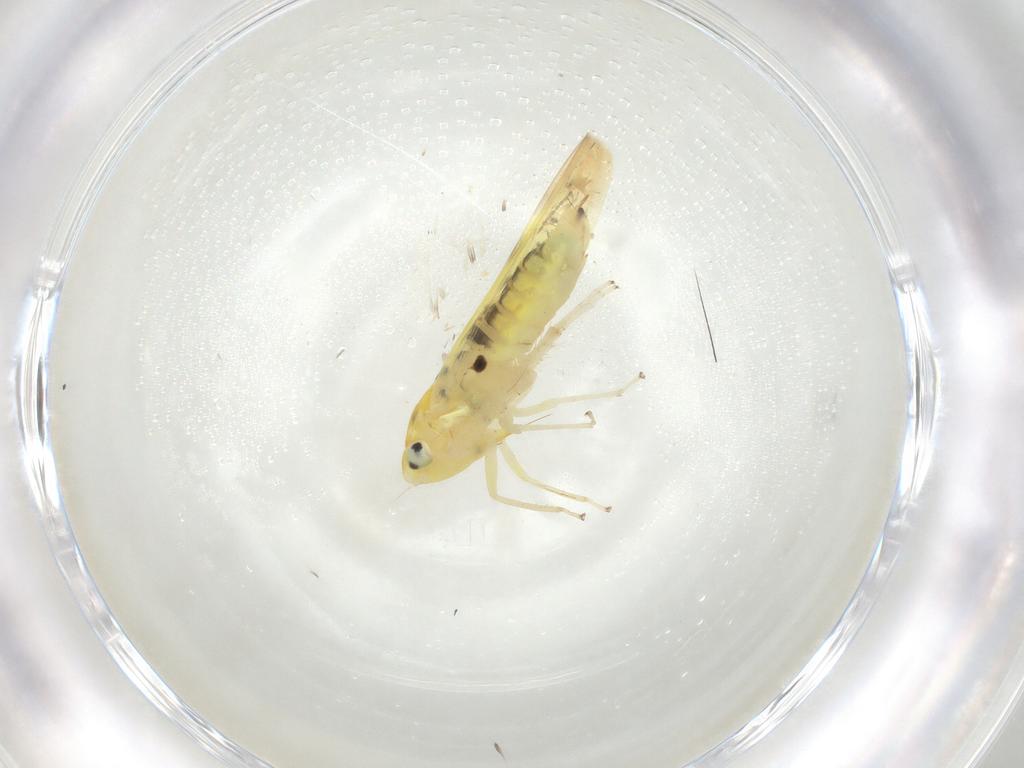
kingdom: Animalia
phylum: Arthropoda
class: Insecta
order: Hemiptera
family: Cicadellidae
